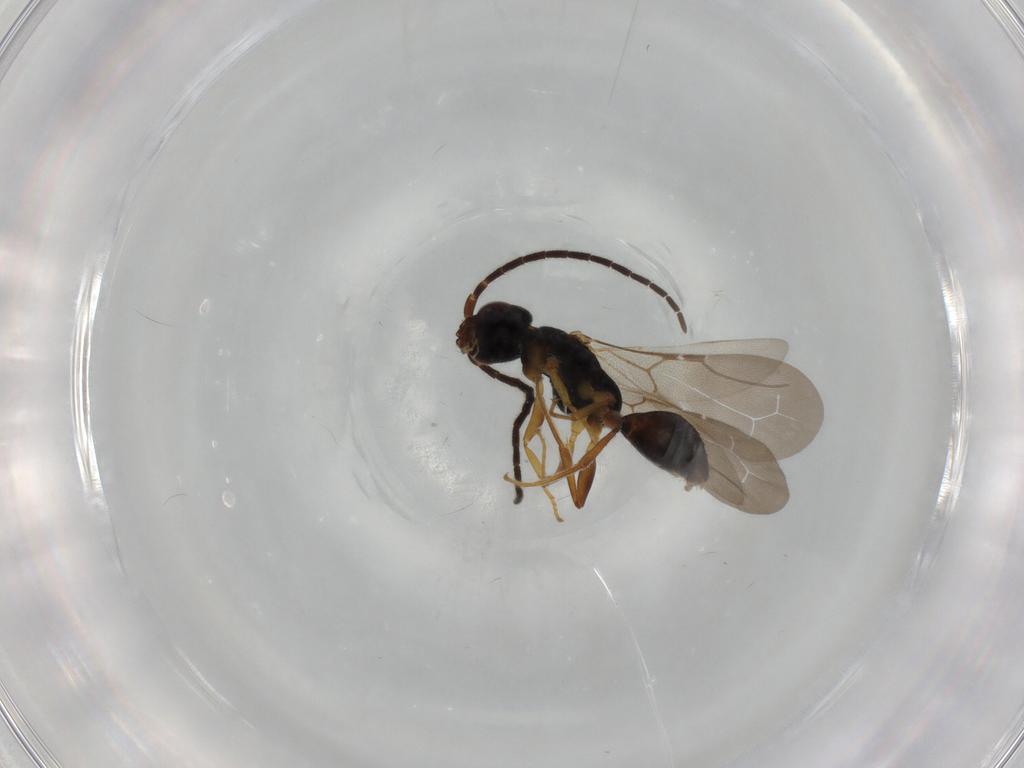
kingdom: Animalia
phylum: Arthropoda
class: Insecta
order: Hymenoptera
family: Bethylidae
